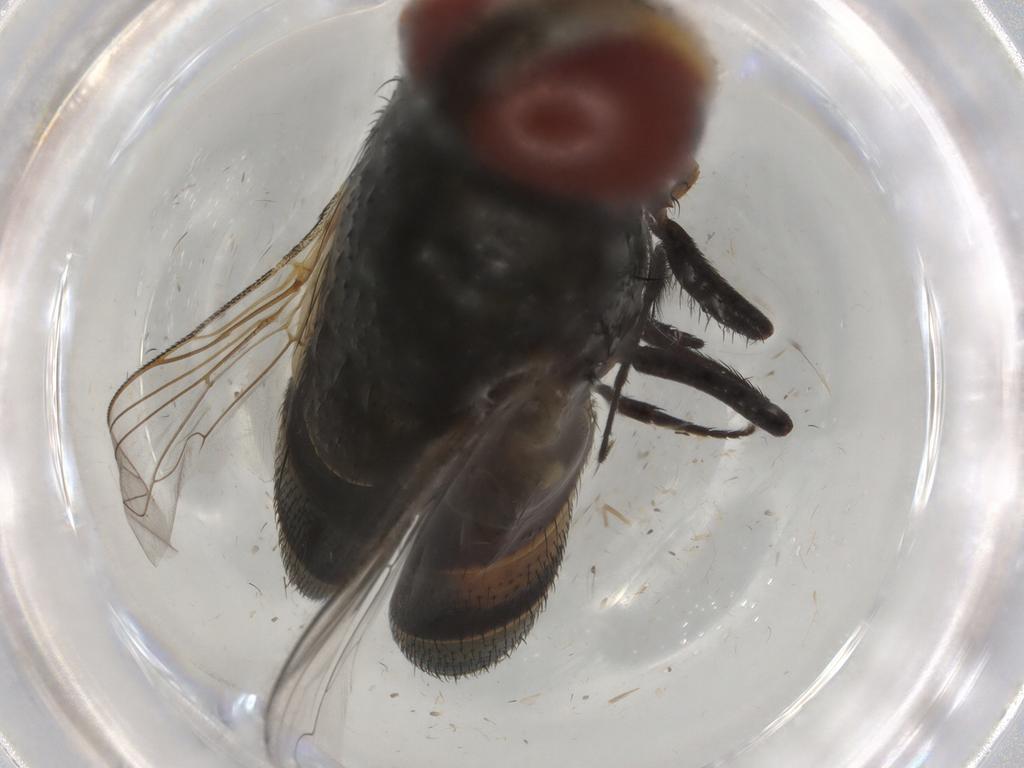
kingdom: Animalia
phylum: Arthropoda
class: Insecta
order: Diptera
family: Sarcophagidae
